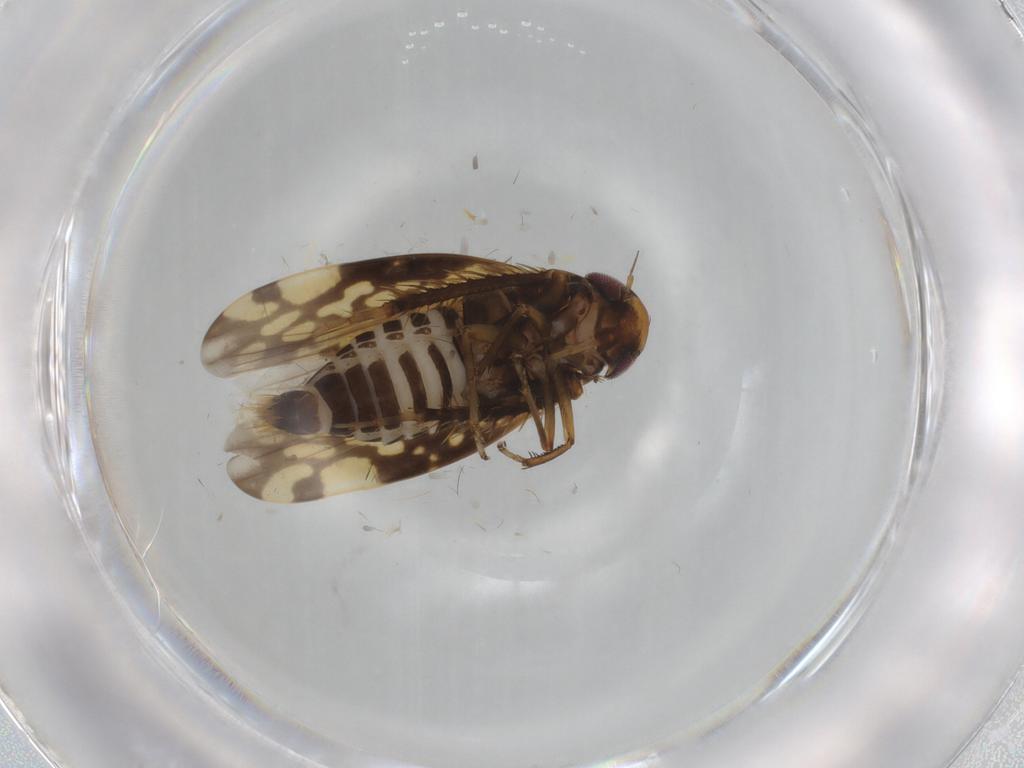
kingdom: Animalia
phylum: Arthropoda
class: Insecta
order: Hemiptera
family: Cicadellidae
